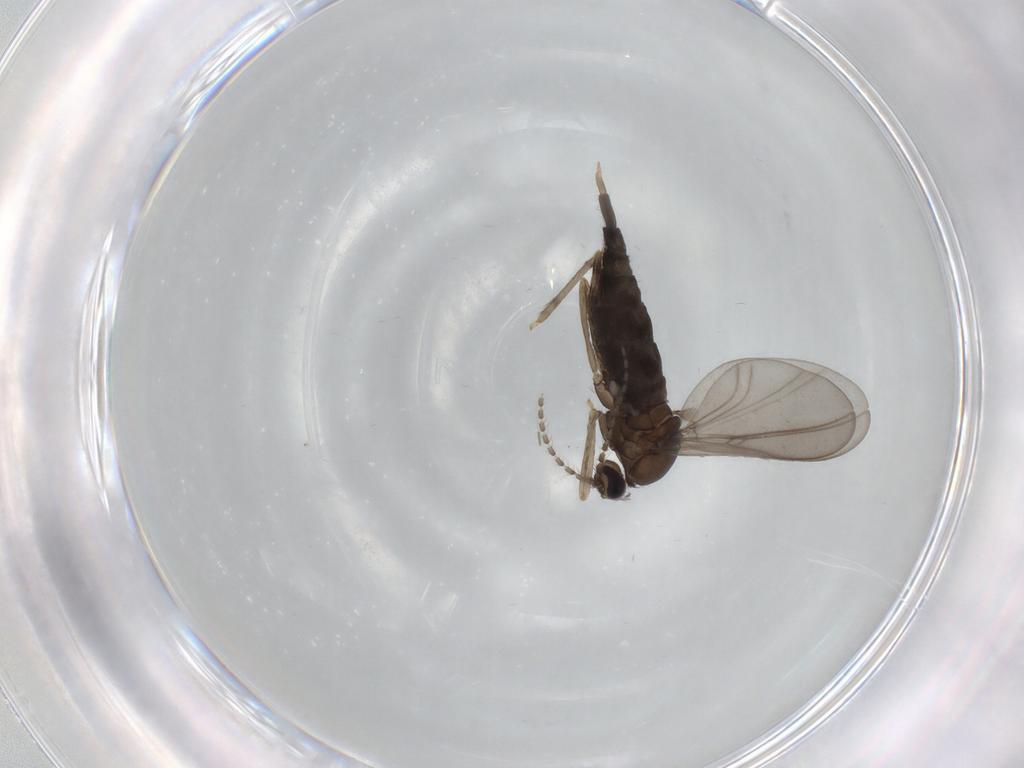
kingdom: Animalia
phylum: Arthropoda
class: Insecta
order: Diptera
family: Cecidomyiidae
